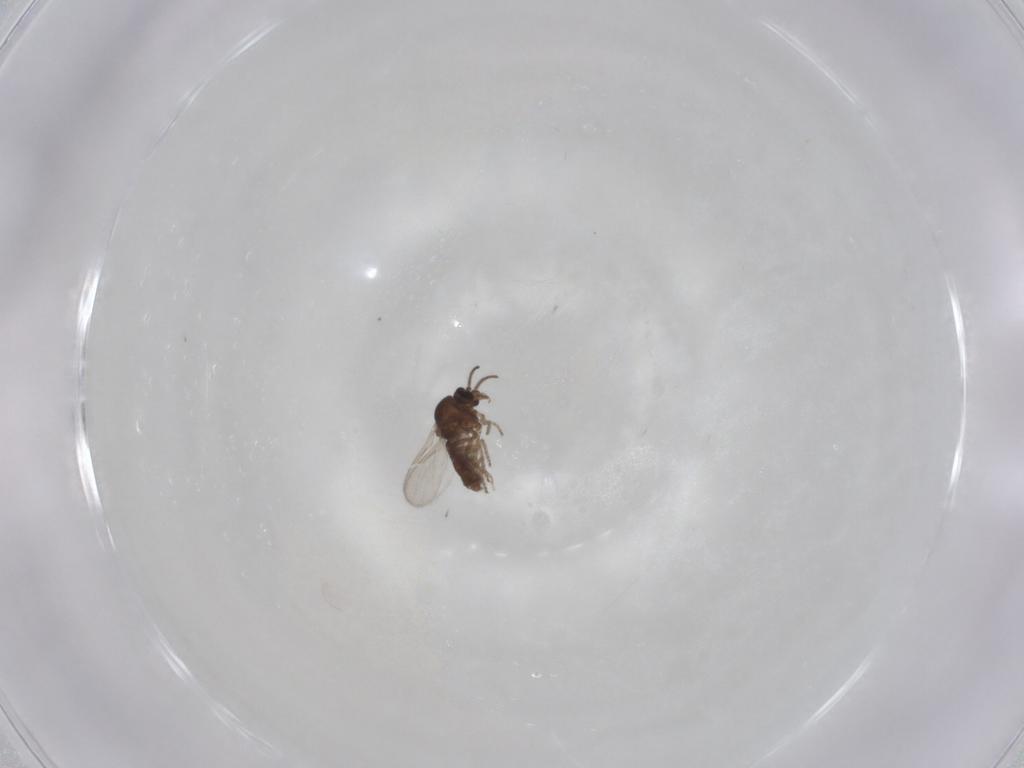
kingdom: Animalia
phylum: Arthropoda
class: Insecta
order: Diptera
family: Ceratopogonidae
